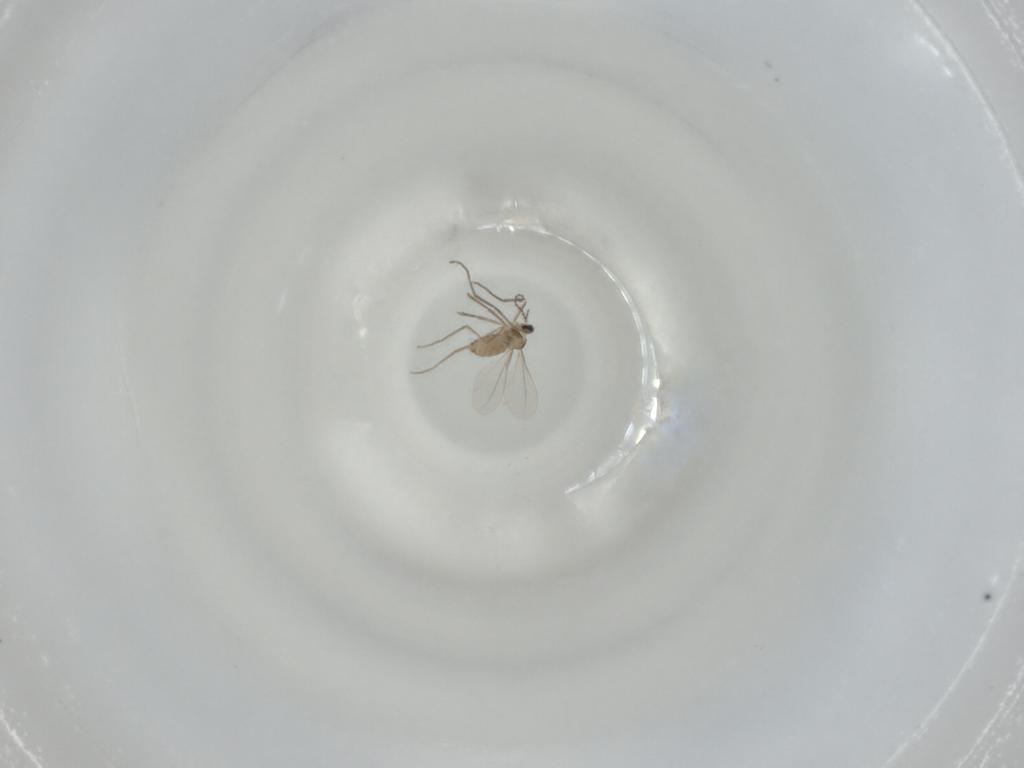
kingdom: Animalia
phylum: Arthropoda
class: Insecta
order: Diptera
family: Cecidomyiidae
